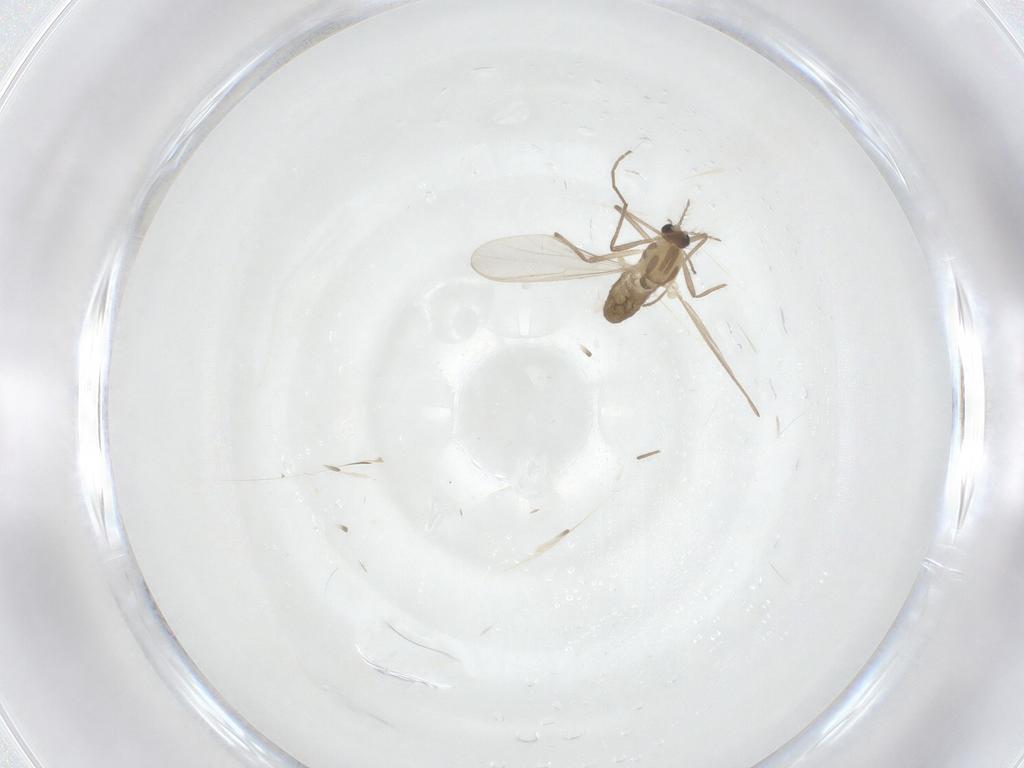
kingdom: Animalia
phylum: Arthropoda
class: Insecta
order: Diptera
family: Chironomidae
